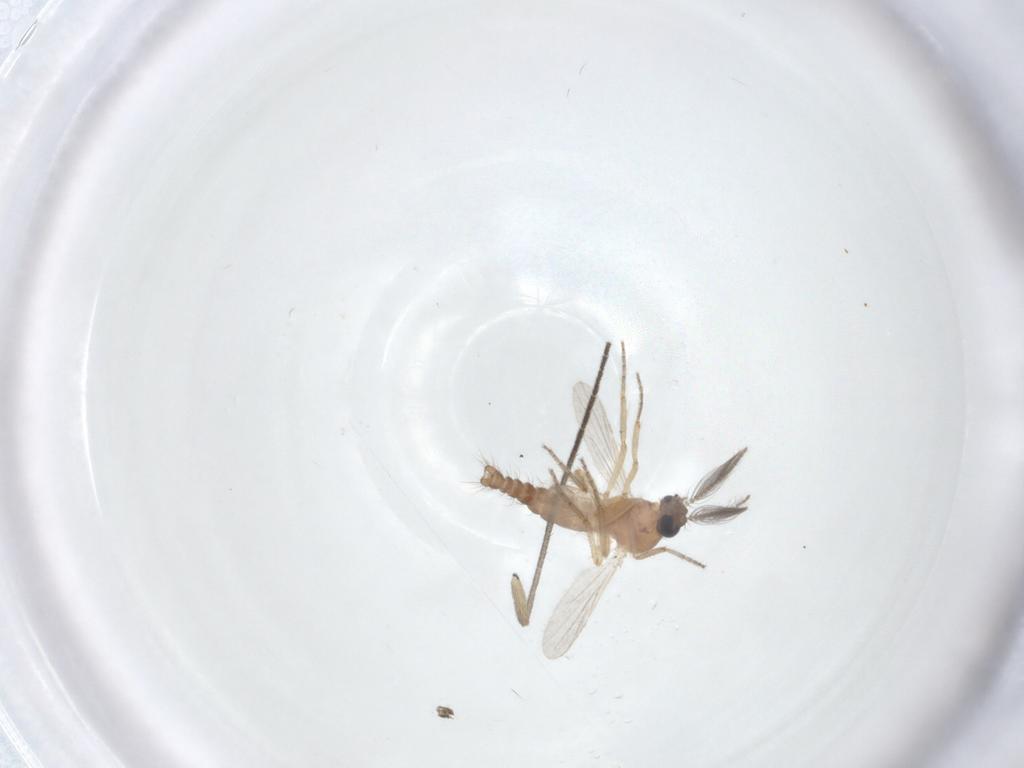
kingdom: Animalia
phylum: Arthropoda
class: Insecta
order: Diptera
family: Ceratopogonidae
